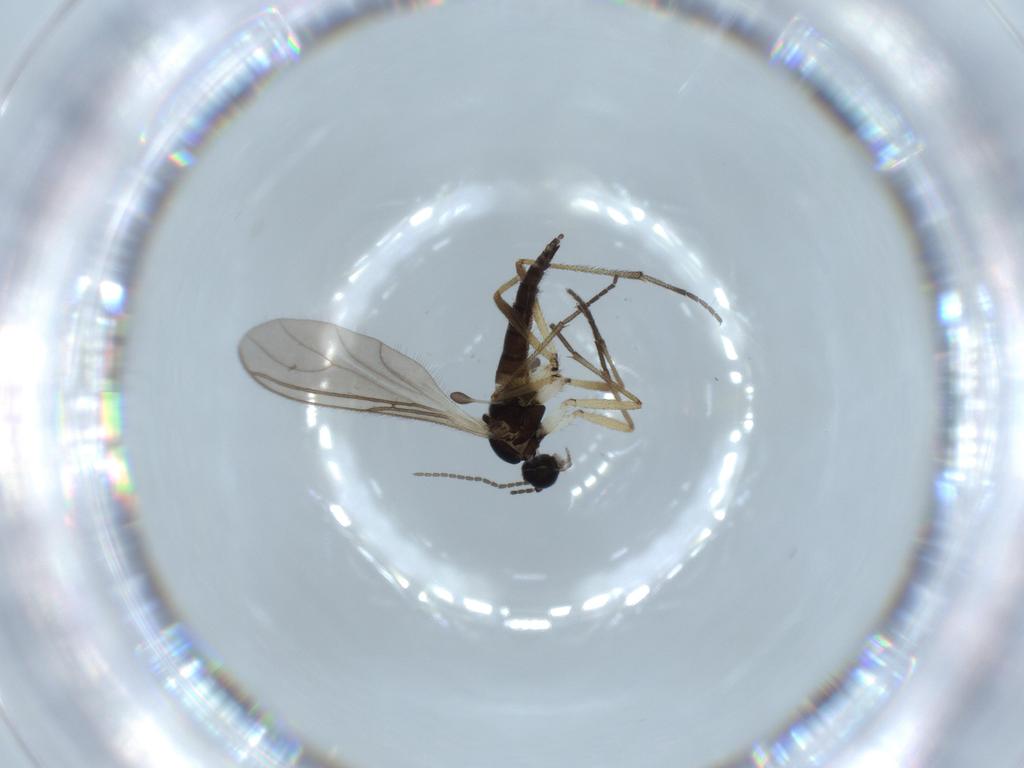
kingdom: Animalia
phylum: Arthropoda
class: Insecta
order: Diptera
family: Sciaridae
